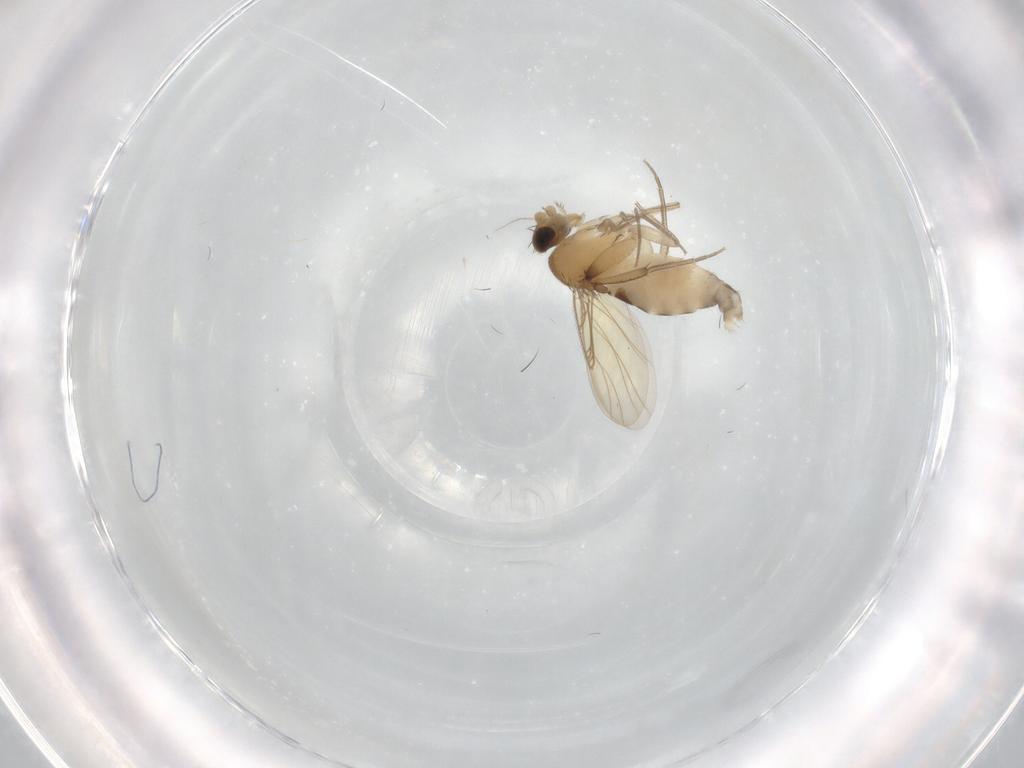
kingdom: Animalia
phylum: Arthropoda
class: Insecta
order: Diptera
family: Phoridae
